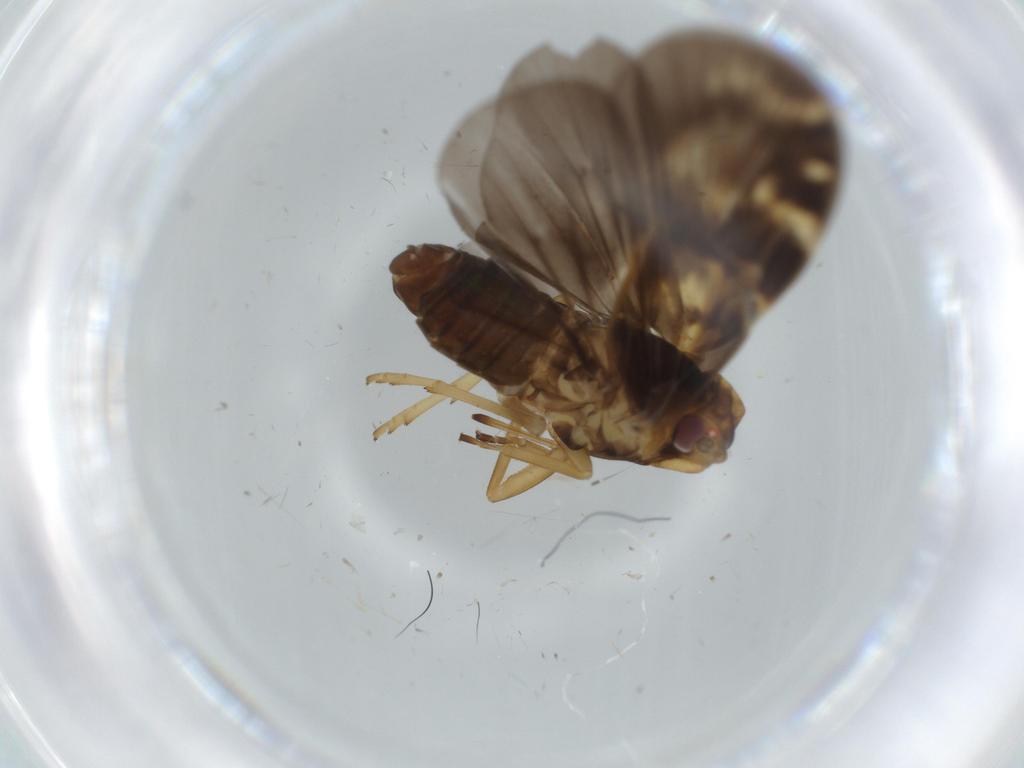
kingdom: Animalia
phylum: Arthropoda
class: Insecta
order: Hemiptera
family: Cixiidae
